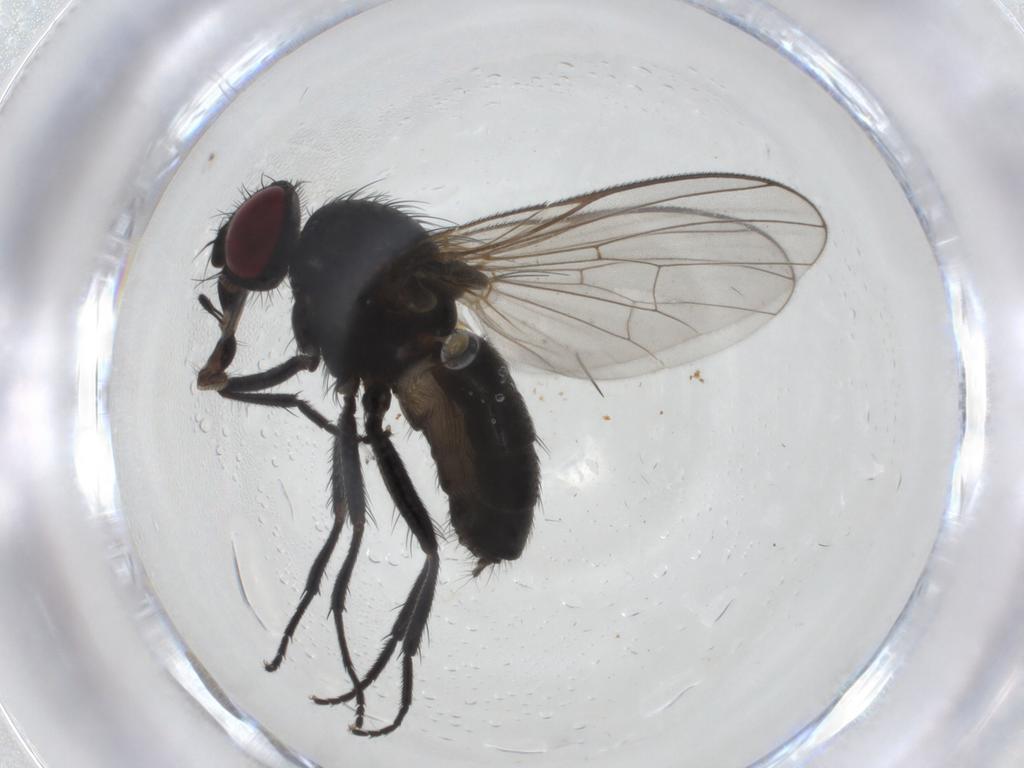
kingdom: Animalia
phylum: Arthropoda
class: Insecta
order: Diptera
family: Fannia
